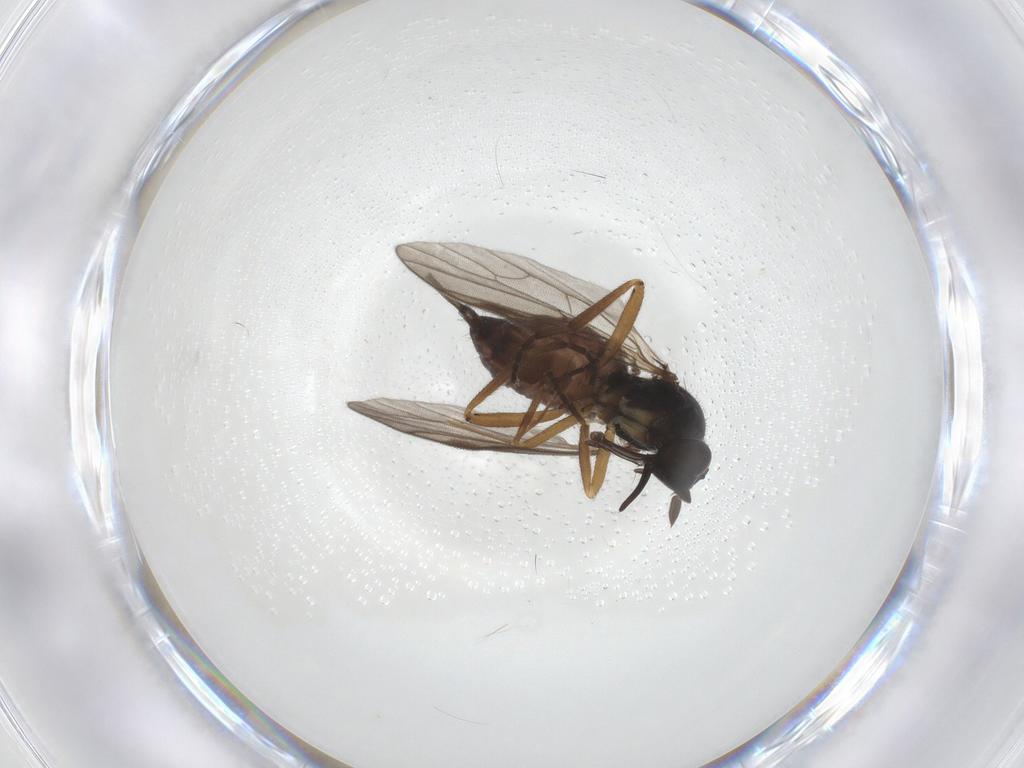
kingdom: Animalia
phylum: Arthropoda
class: Insecta
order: Diptera
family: Hybotidae
